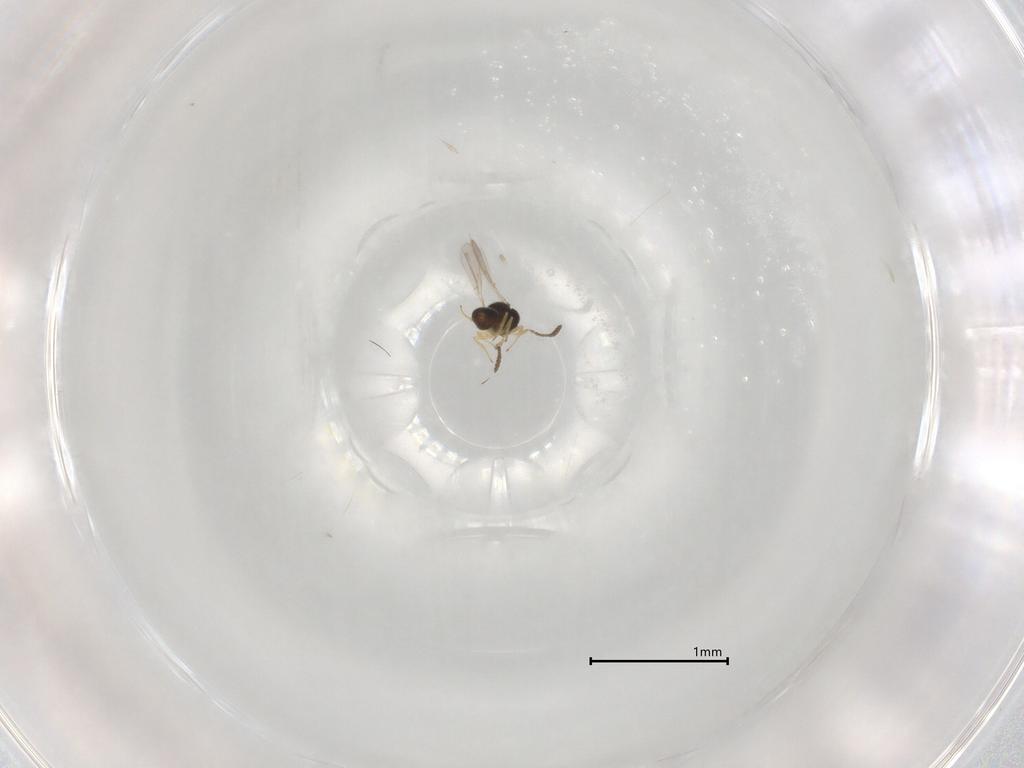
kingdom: Animalia
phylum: Arthropoda
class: Insecta
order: Hymenoptera
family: Scelionidae
